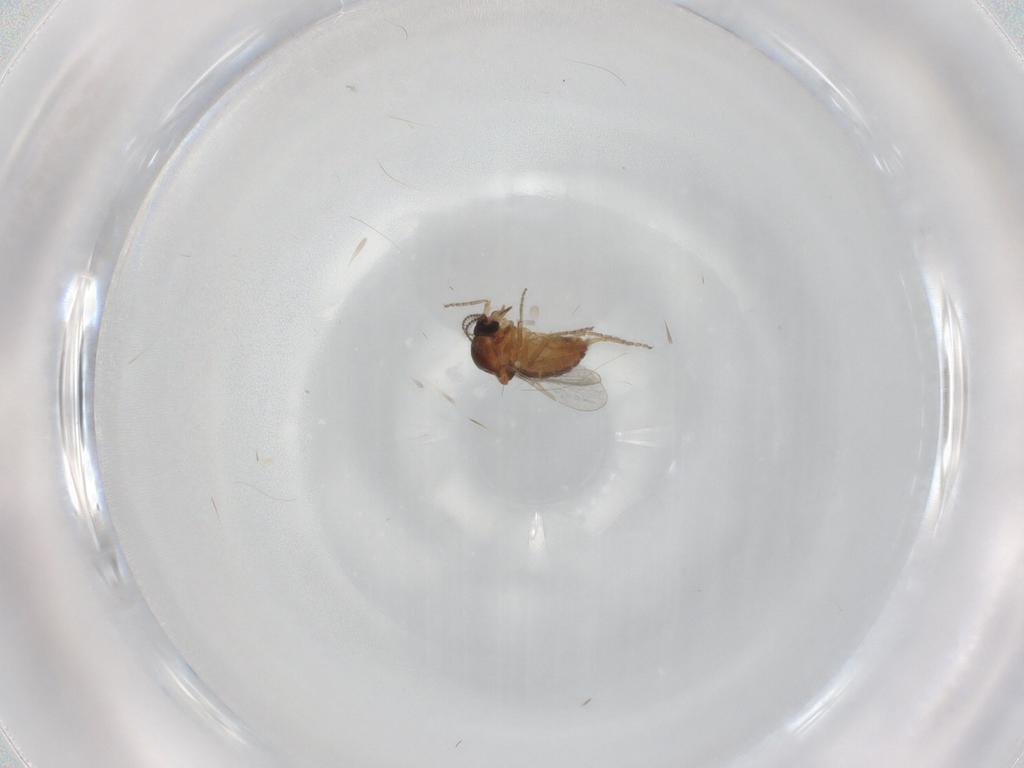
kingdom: Animalia
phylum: Arthropoda
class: Insecta
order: Diptera
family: Ceratopogonidae
